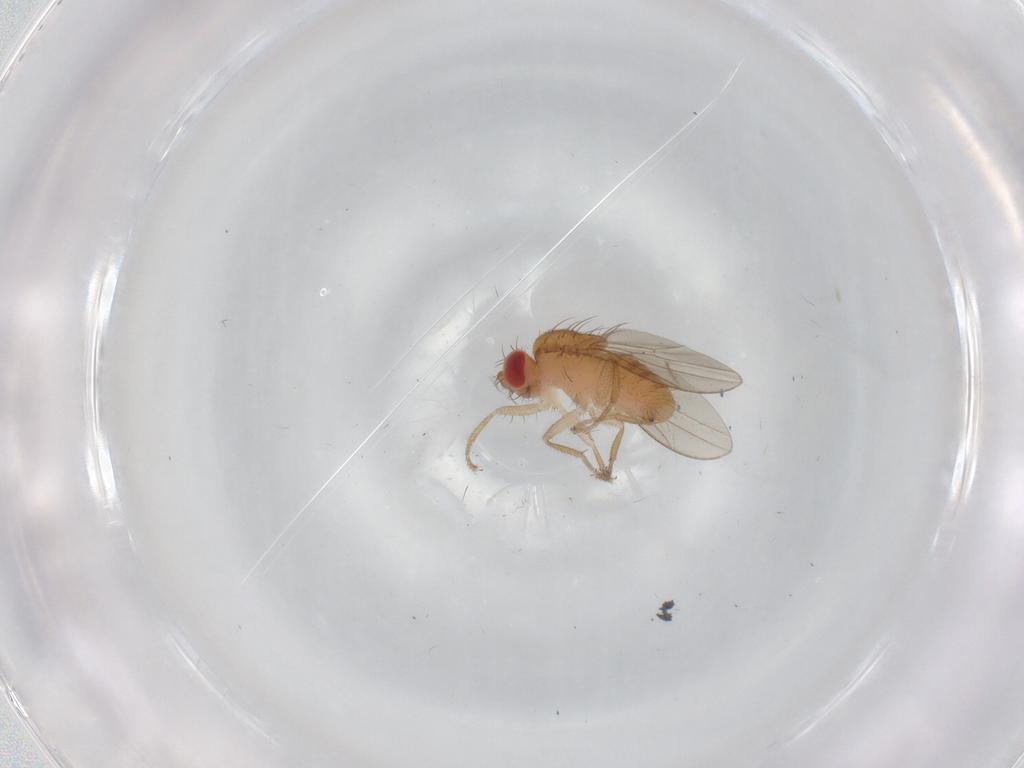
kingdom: Animalia
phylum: Arthropoda
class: Insecta
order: Diptera
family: Drosophilidae
